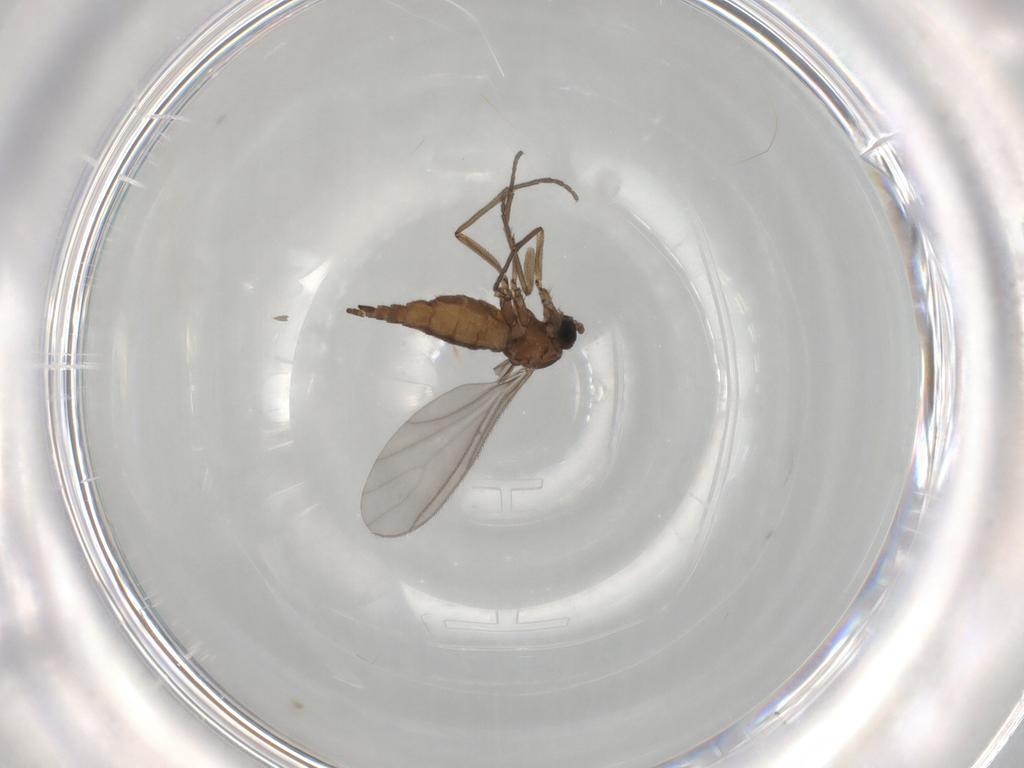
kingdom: Animalia
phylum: Arthropoda
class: Insecta
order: Diptera
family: Sciaridae
